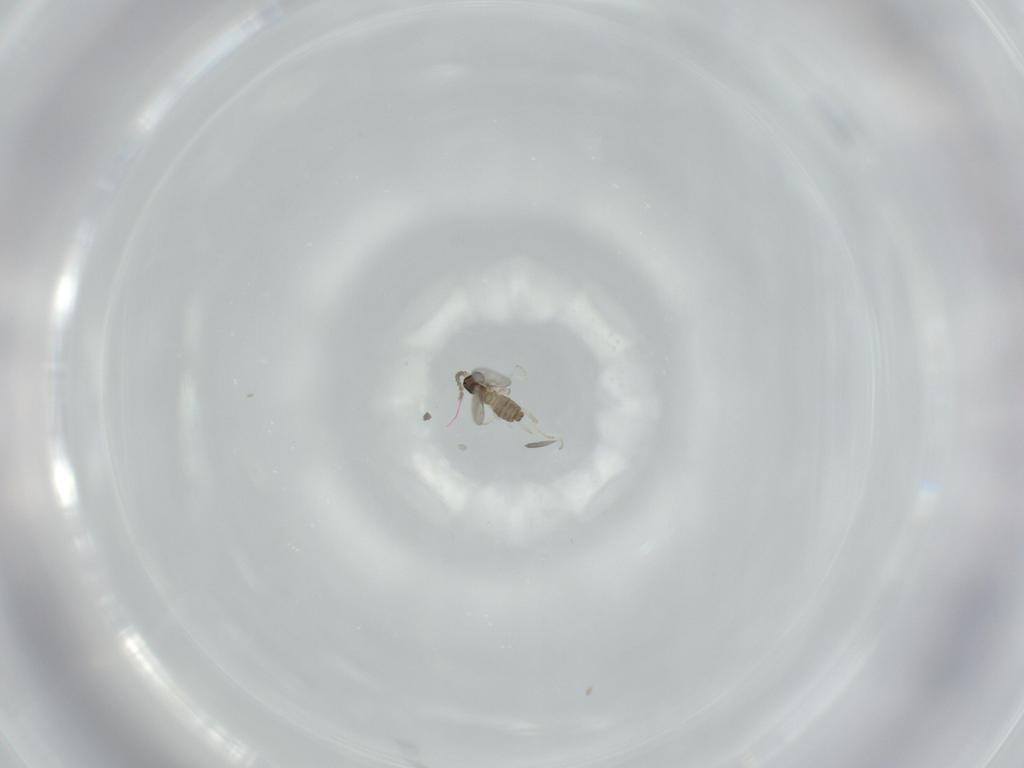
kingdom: Animalia
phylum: Arthropoda
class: Insecta
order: Diptera
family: Cecidomyiidae
